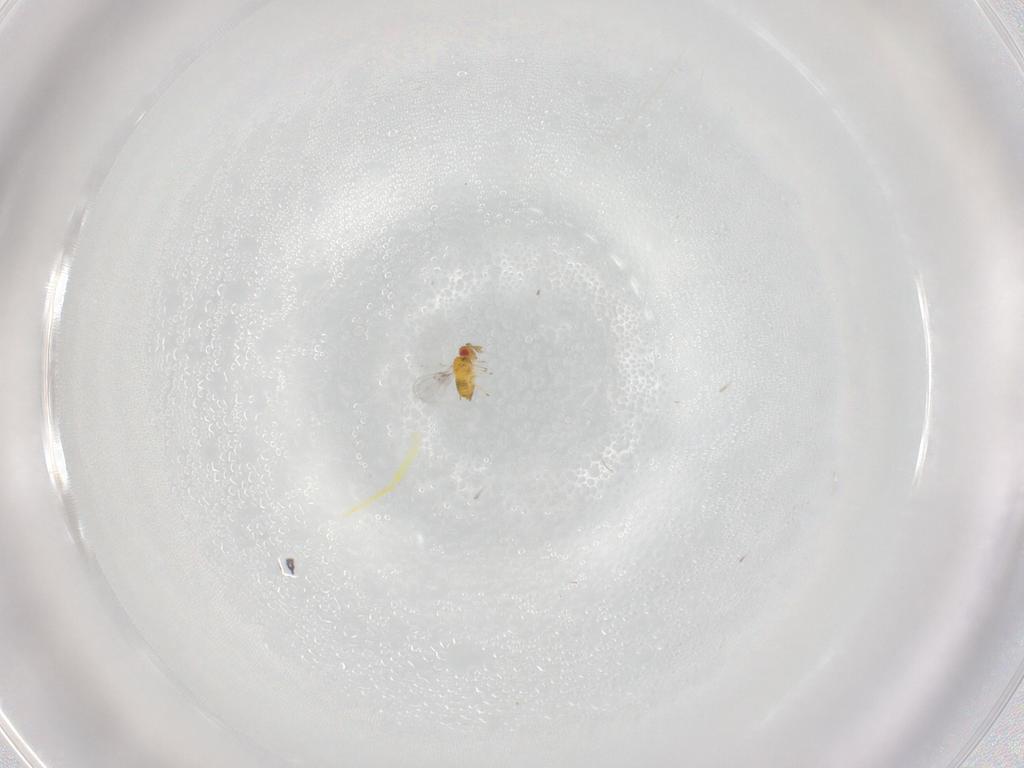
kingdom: Animalia
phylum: Arthropoda
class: Insecta
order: Hymenoptera
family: Trichogrammatidae
